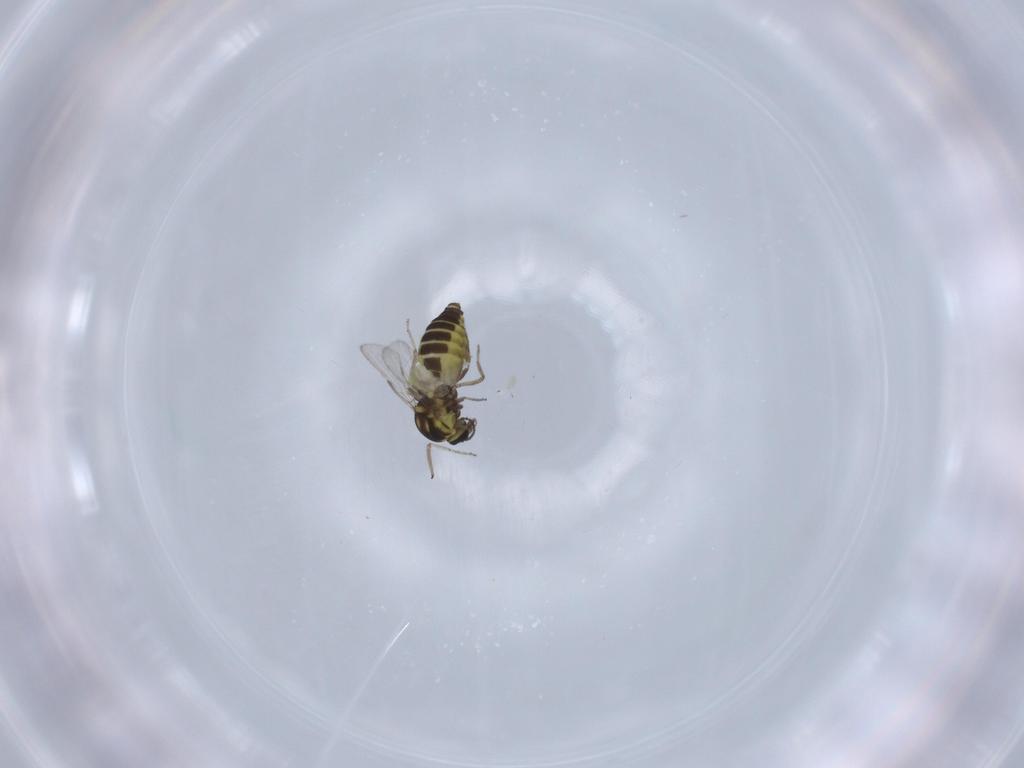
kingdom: Animalia
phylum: Arthropoda
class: Insecta
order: Diptera
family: Ceratopogonidae
